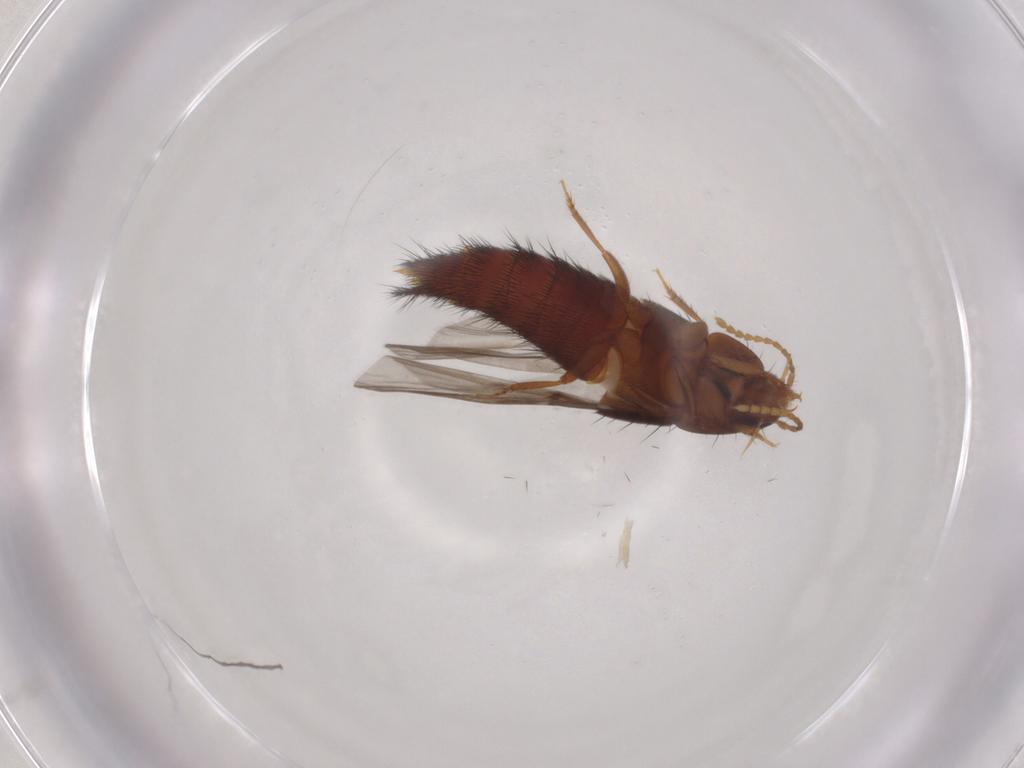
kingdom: Animalia
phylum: Arthropoda
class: Insecta
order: Coleoptera
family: Staphylinidae
